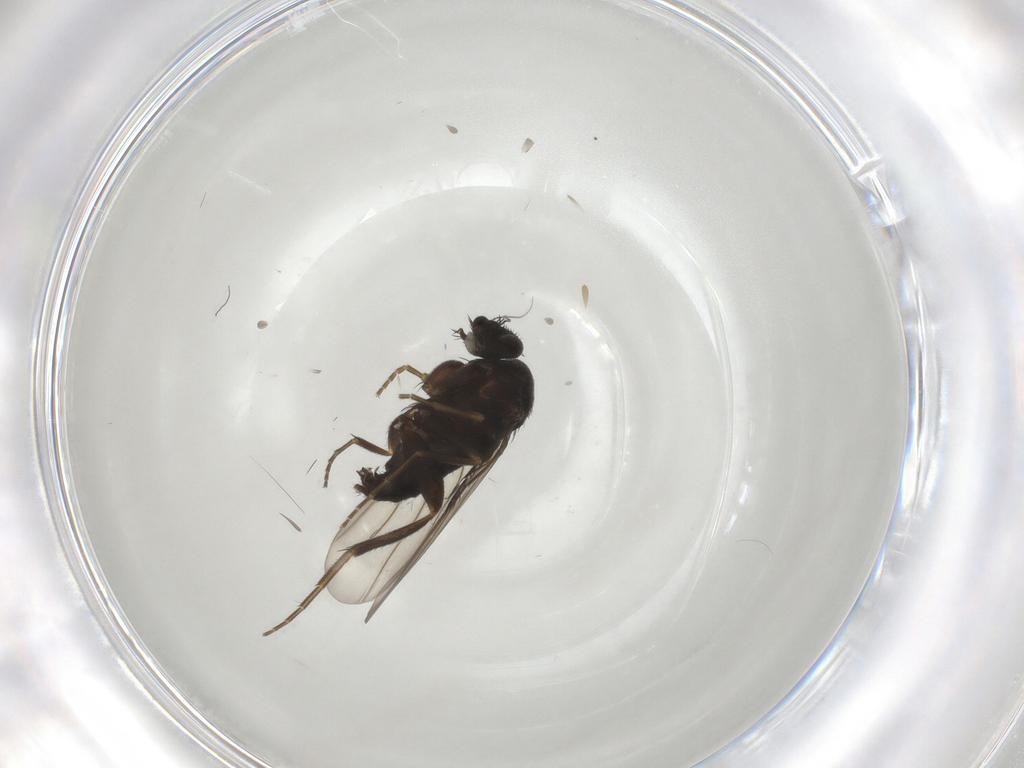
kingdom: Animalia
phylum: Arthropoda
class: Insecta
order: Diptera
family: Phoridae
